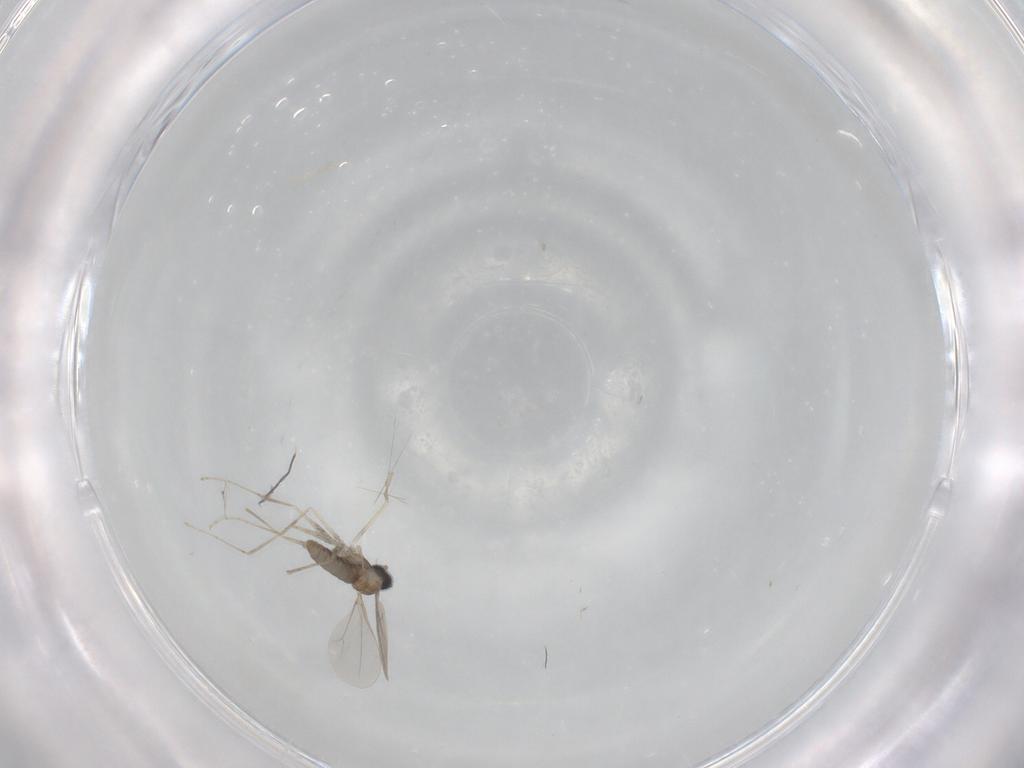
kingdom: Animalia
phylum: Arthropoda
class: Insecta
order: Diptera
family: Cecidomyiidae
